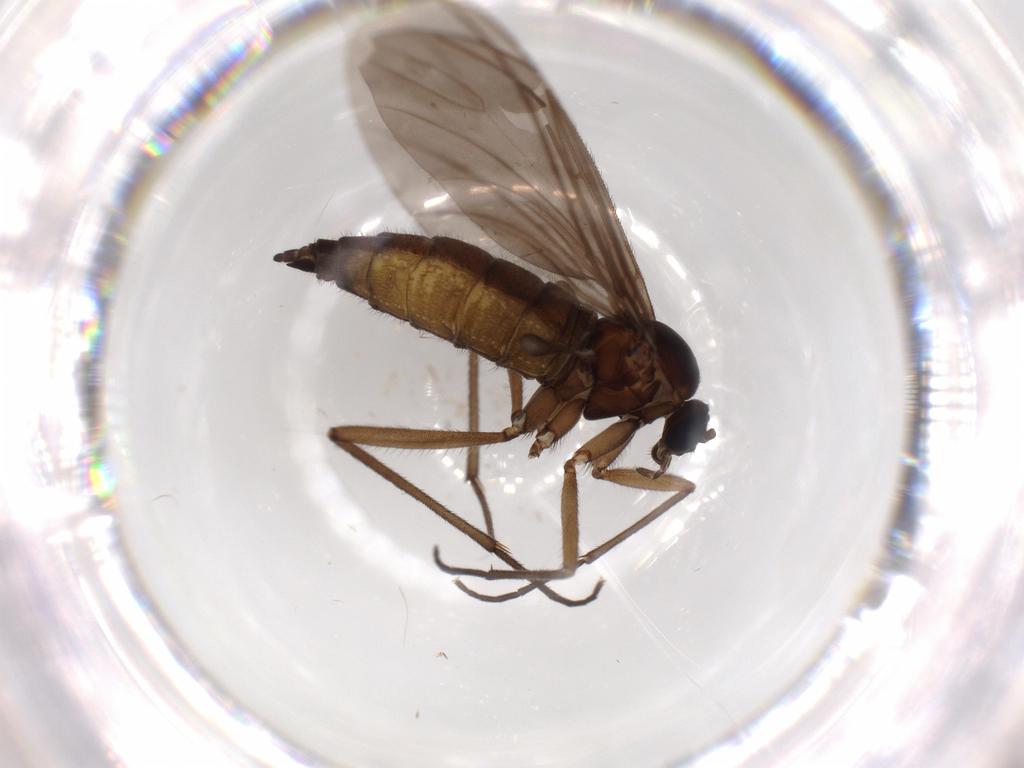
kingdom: Animalia
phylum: Arthropoda
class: Insecta
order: Diptera
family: Sciaridae
